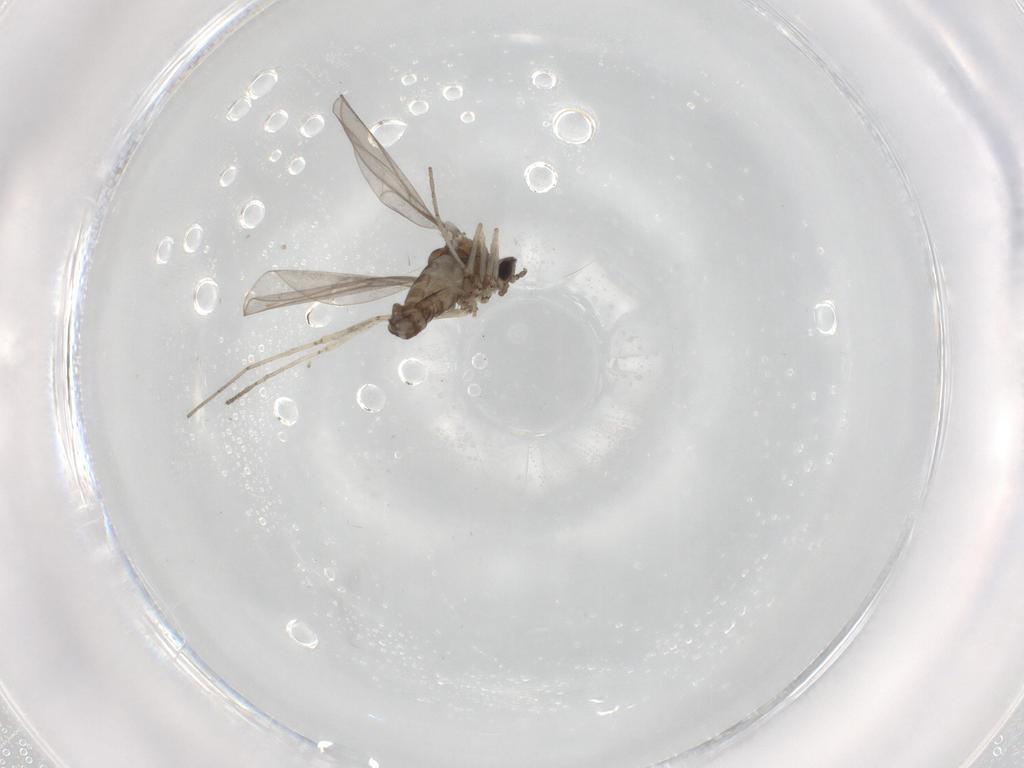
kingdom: Animalia
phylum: Arthropoda
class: Insecta
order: Diptera
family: Cecidomyiidae
